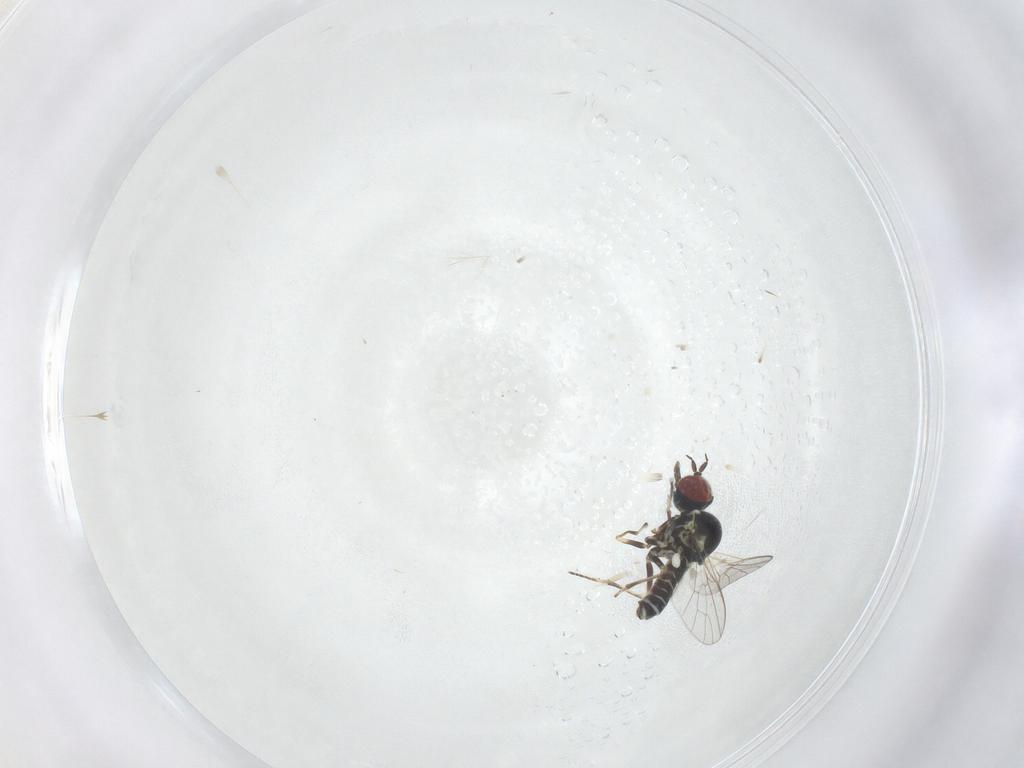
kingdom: Animalia
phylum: Arthropoda
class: Insecta
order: Diptera
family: Bombyliidae
